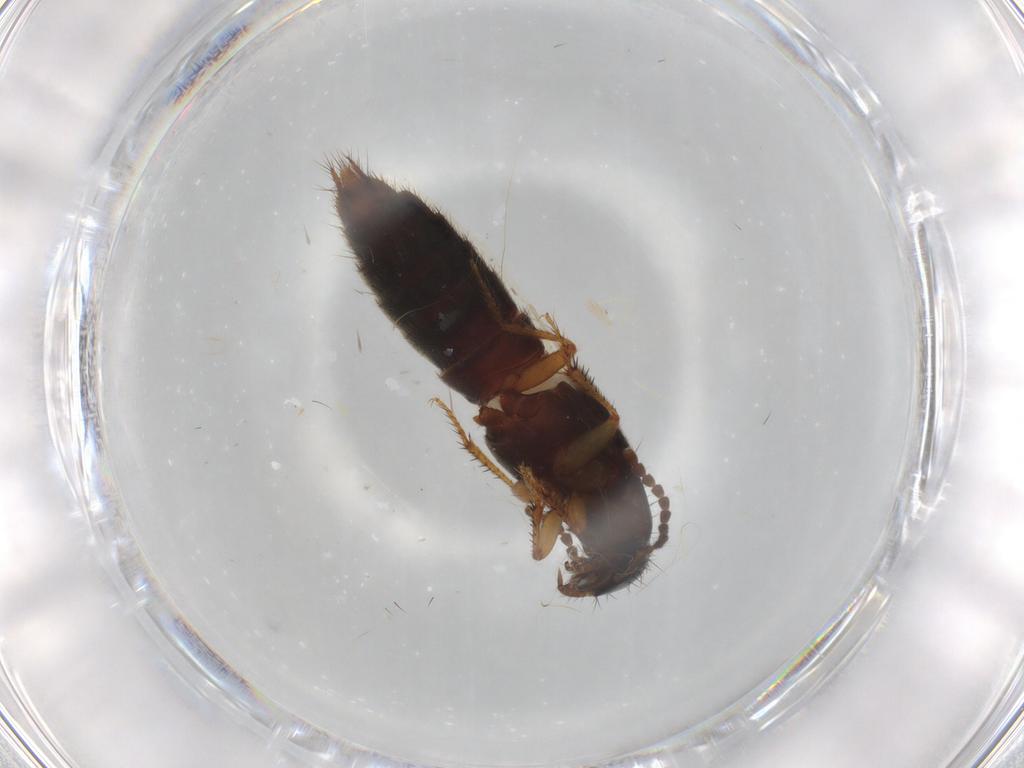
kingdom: Animalia
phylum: Arthropoda
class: Insecta
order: Coleoptera
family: Staphylinidae
